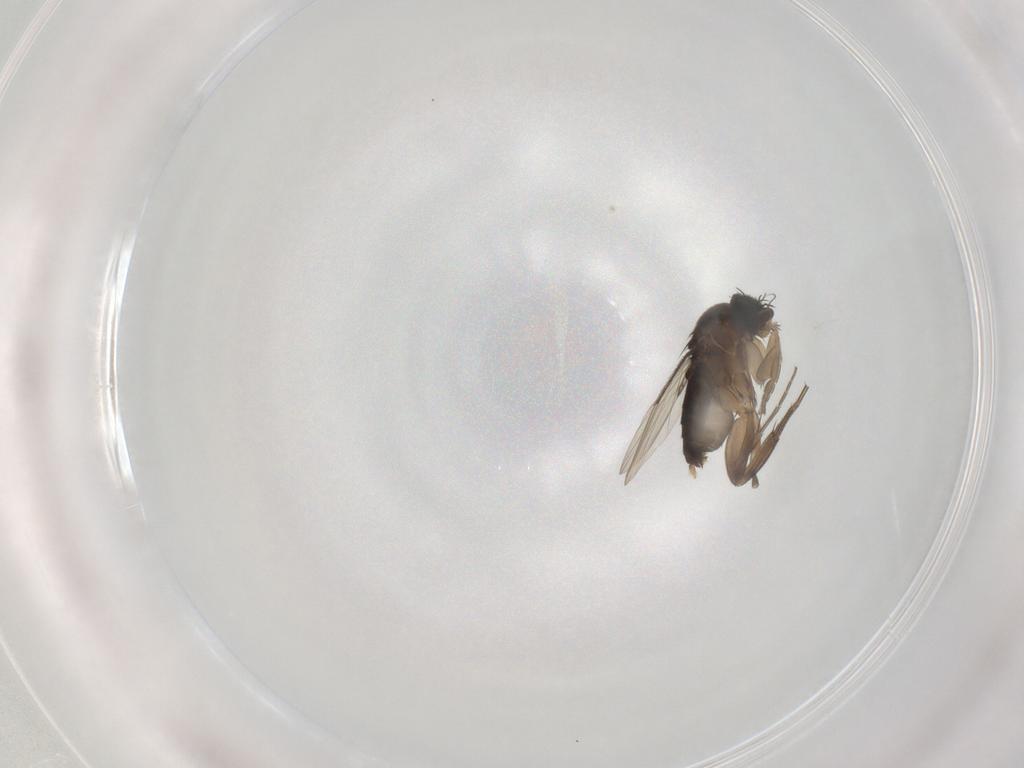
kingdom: Animalia
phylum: Arthropoda
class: Insecta
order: Diptera
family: Phoridae
